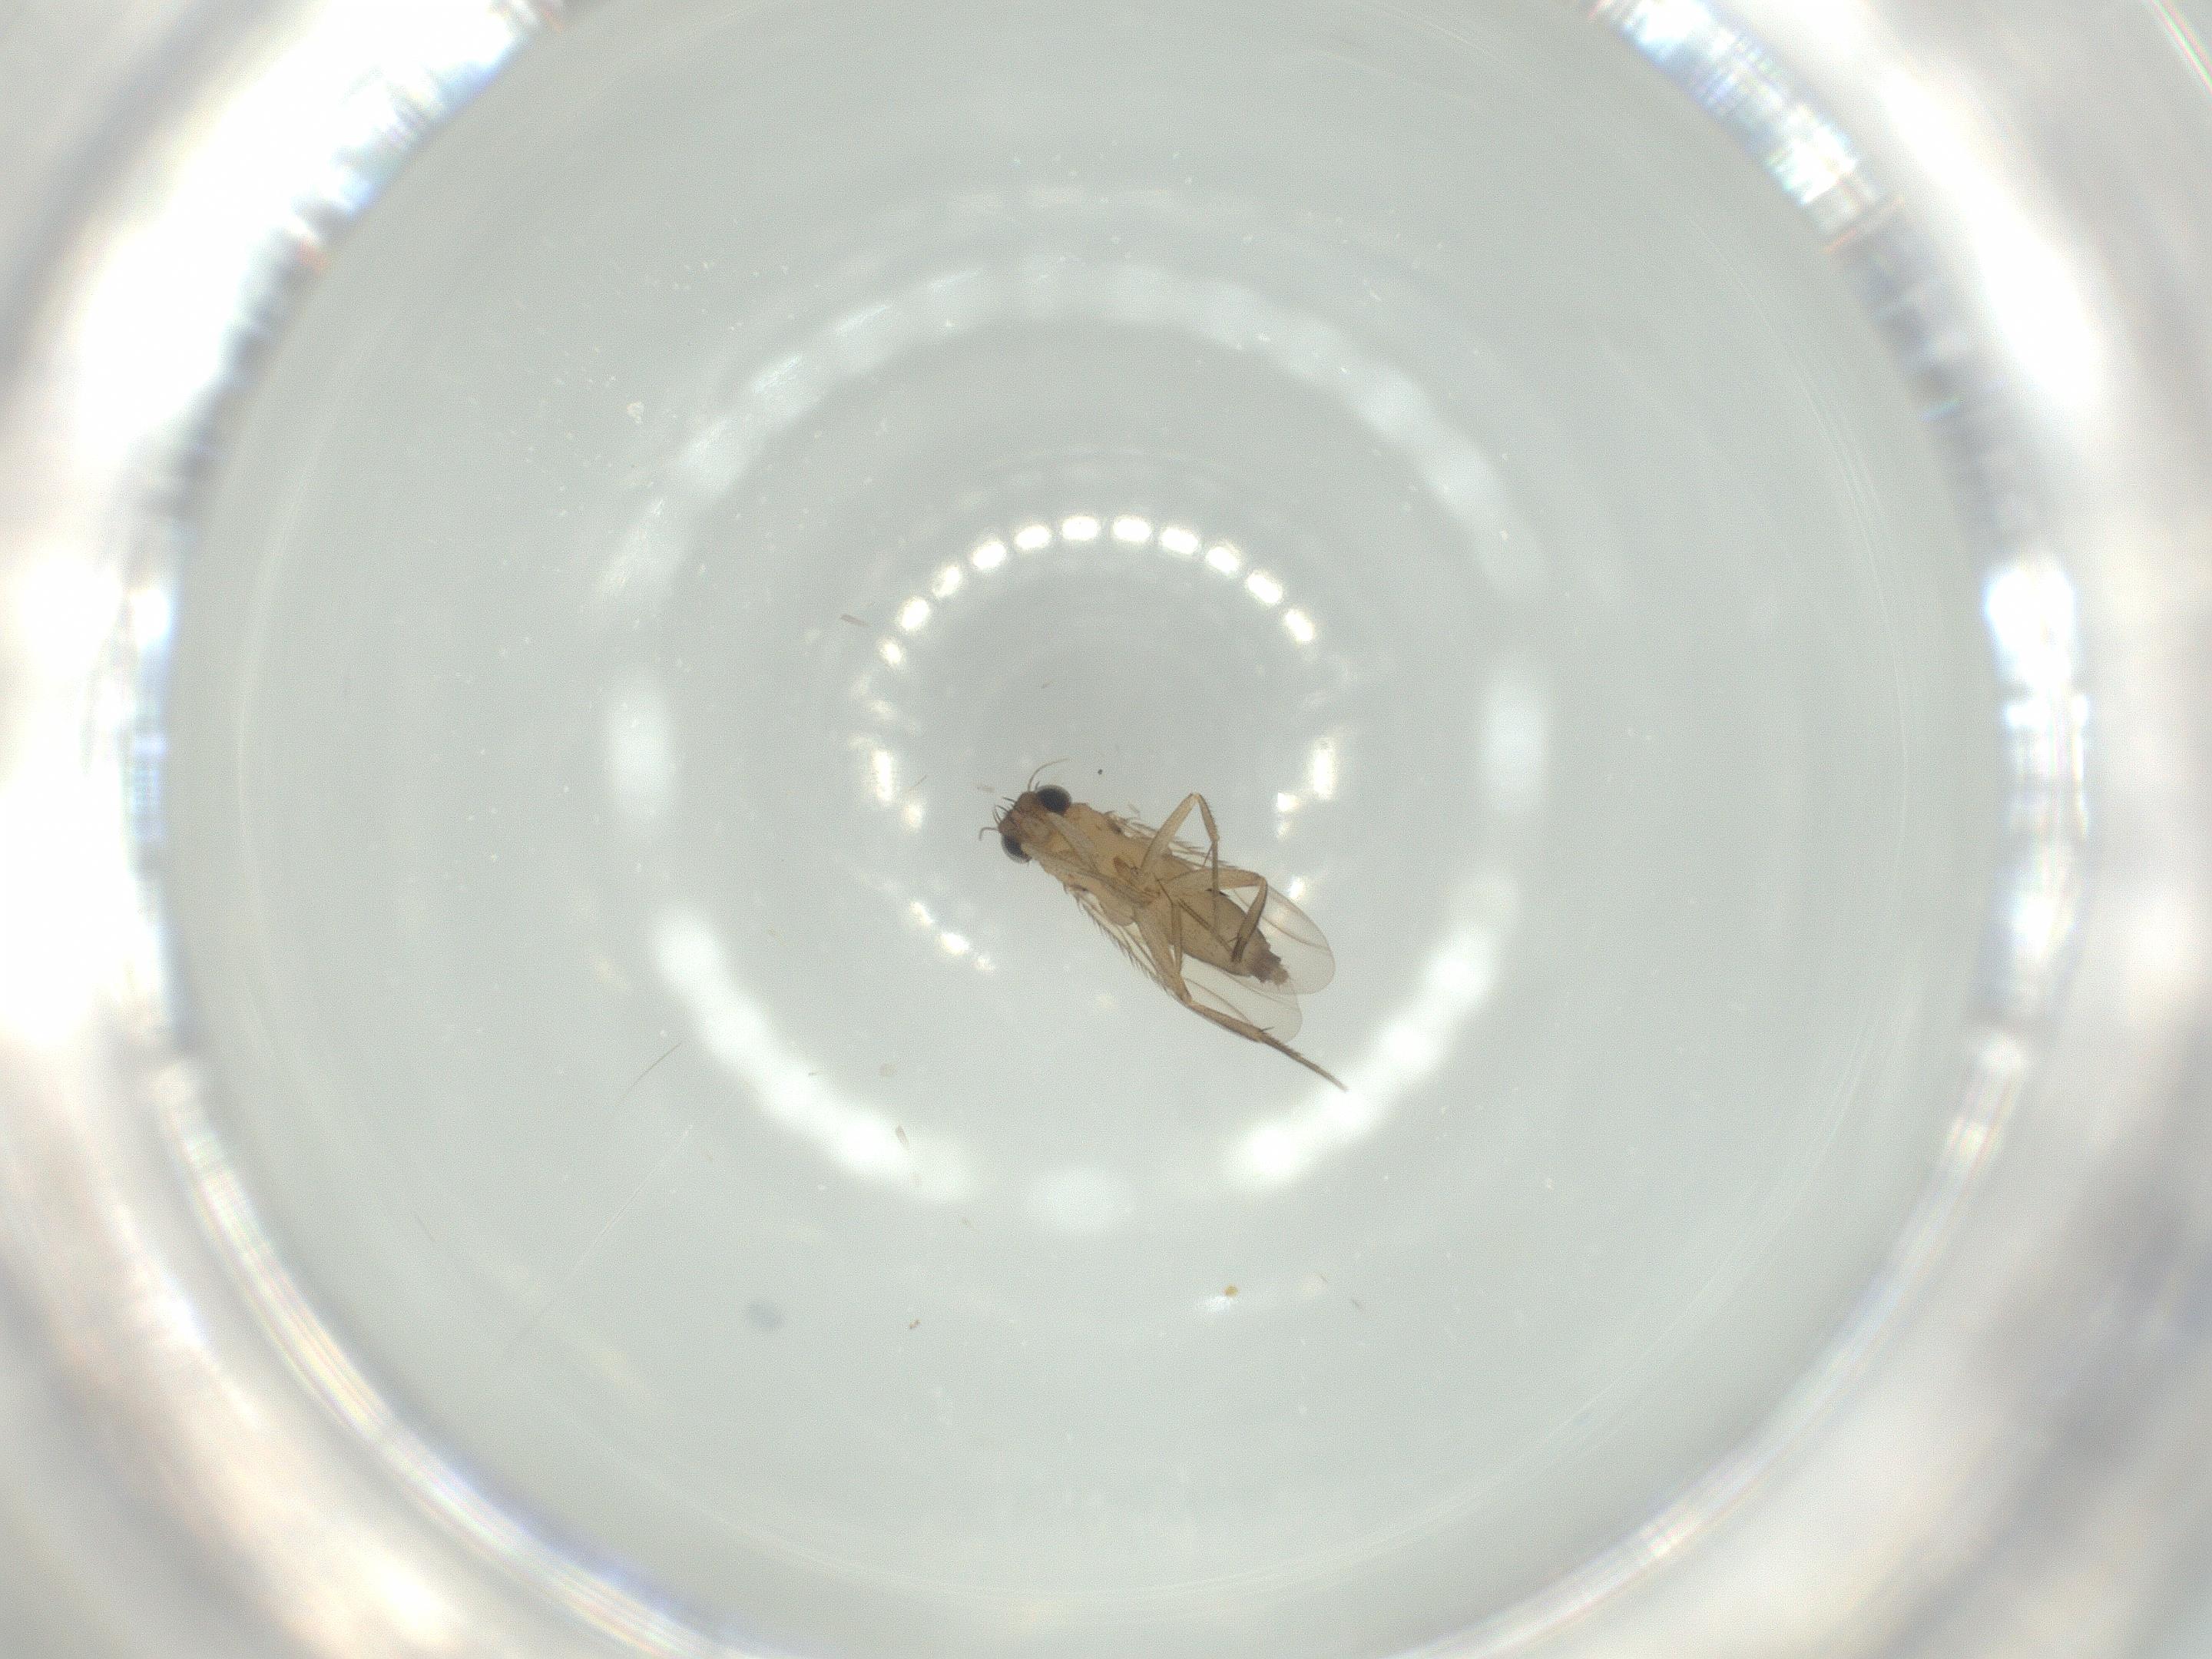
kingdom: Animalia
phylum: Arthropoda
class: Insecta
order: Diptera
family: Phoridae
